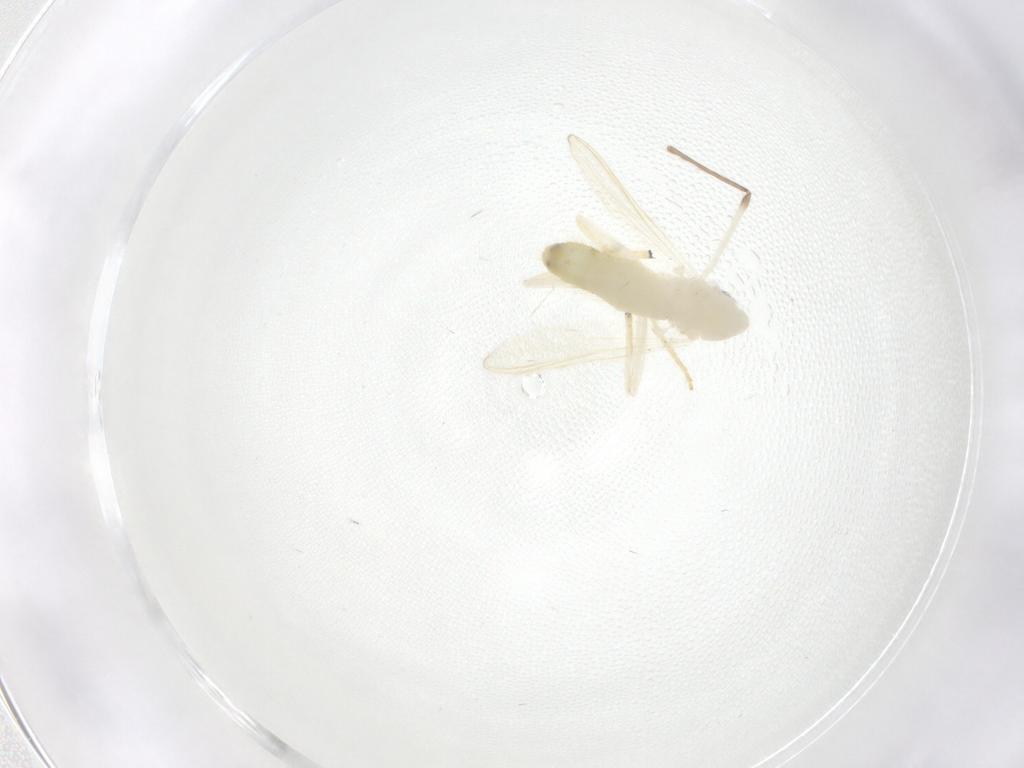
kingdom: Animalia
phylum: Arthropoda
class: Insecta
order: Diptera
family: Chironomidae
